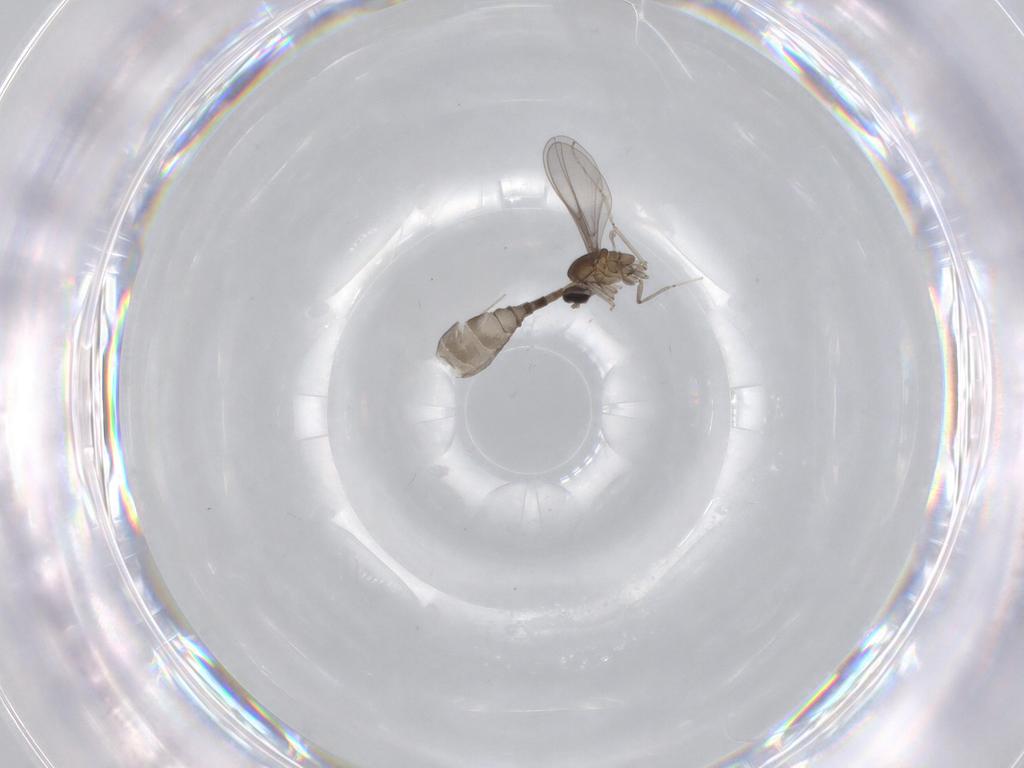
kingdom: Animalia
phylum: Arthropoda
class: Insecta
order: Diptera
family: Cecidomyiidae
